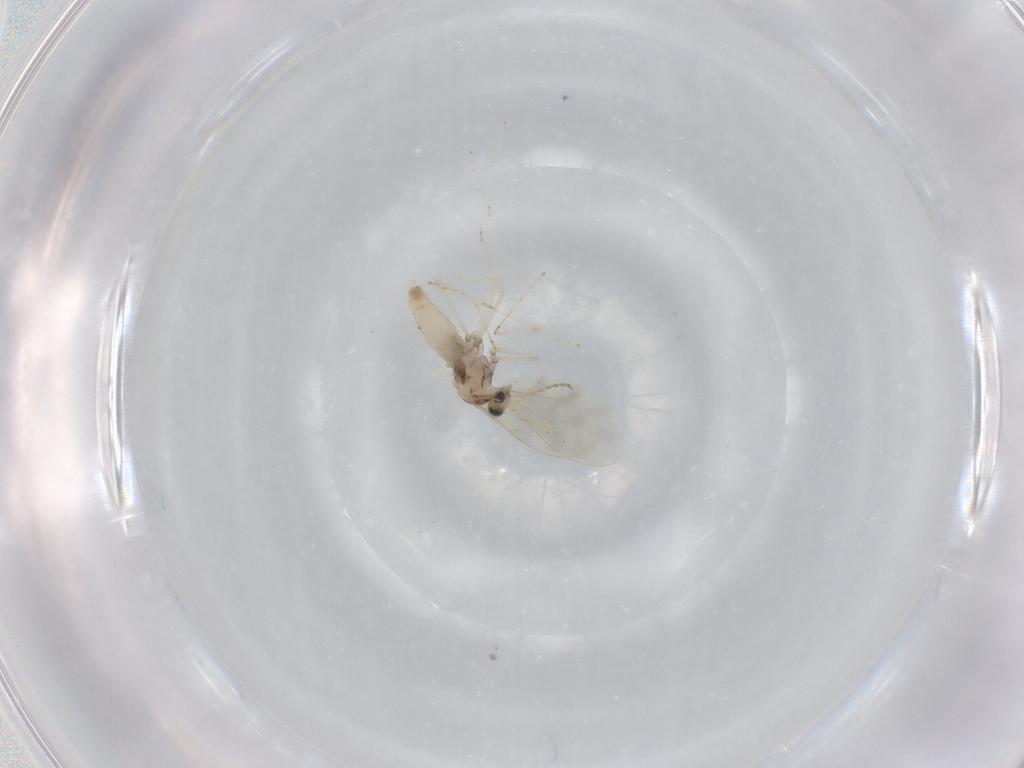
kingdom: Animalia
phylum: Arthropoda
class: Insecta
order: Diptera
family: Cecidomyiidae
